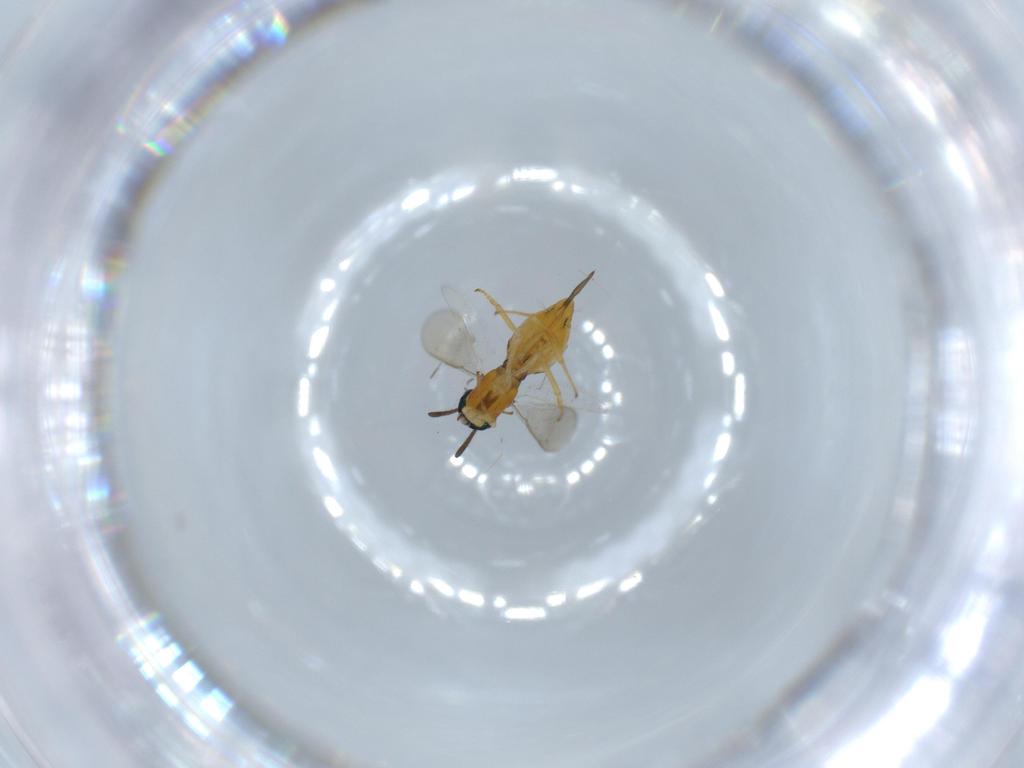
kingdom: Animalia
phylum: Arthropoda
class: Insecta
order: Hymenoptera
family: Eupelmidae
